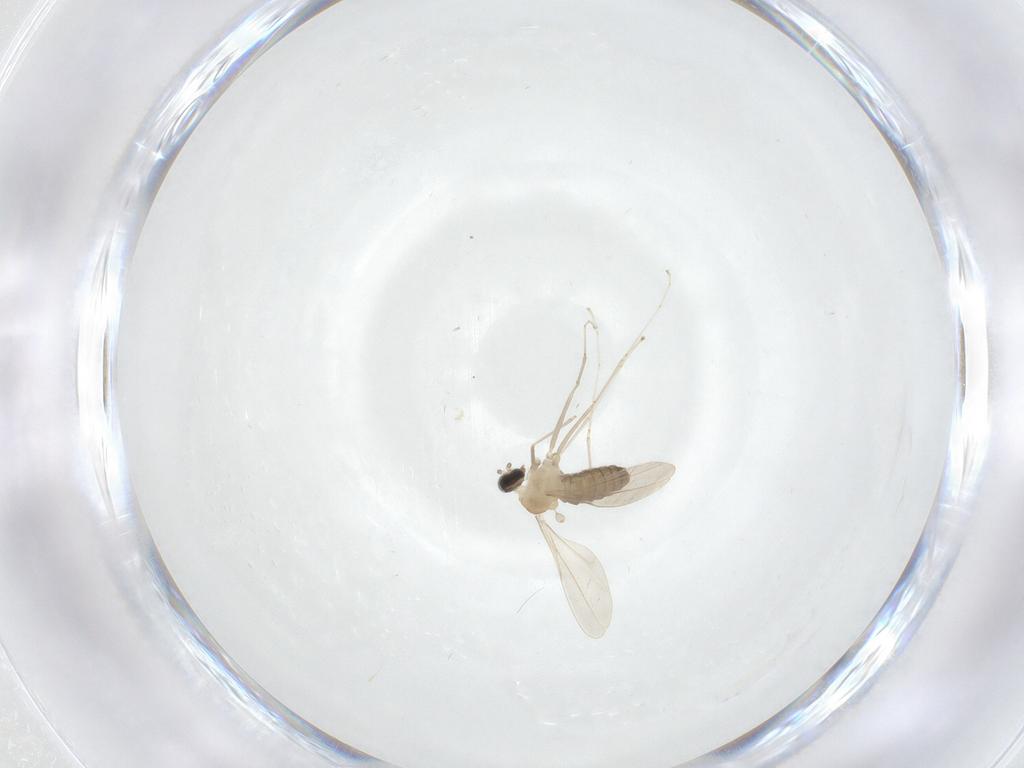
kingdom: Animalia
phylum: Arthropoda
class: Insecta
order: Diptera
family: Cecidomyiidae
